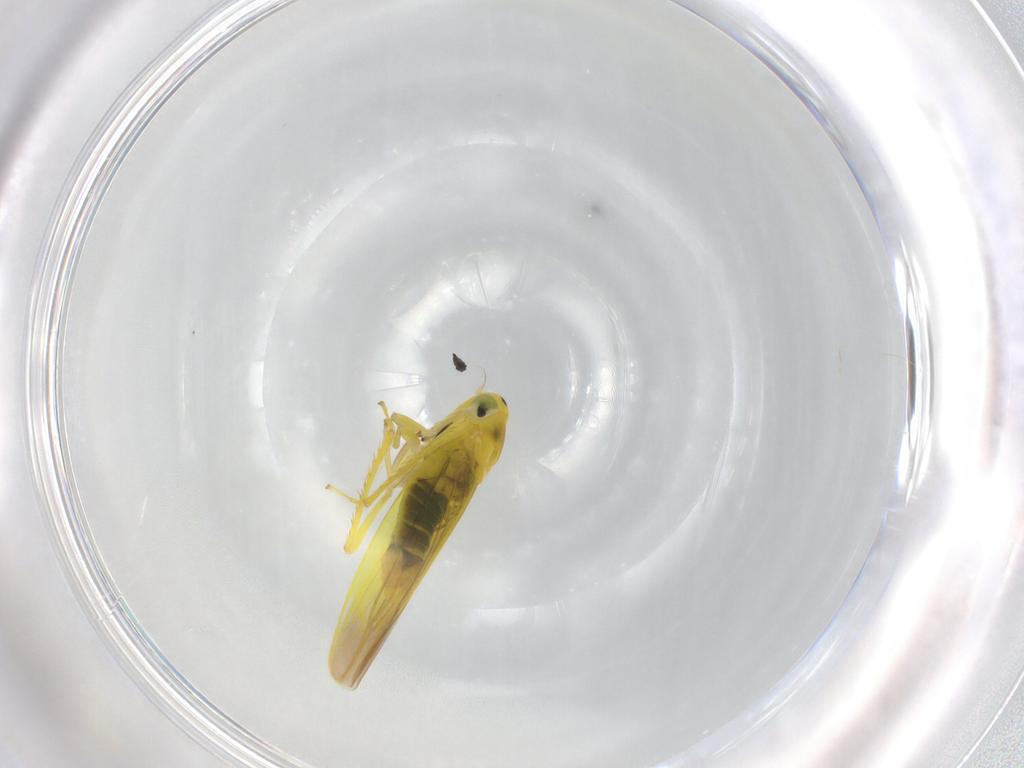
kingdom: Animalia
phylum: Arthropoda
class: Insecta
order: Hemiptera
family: Cicadellidae
